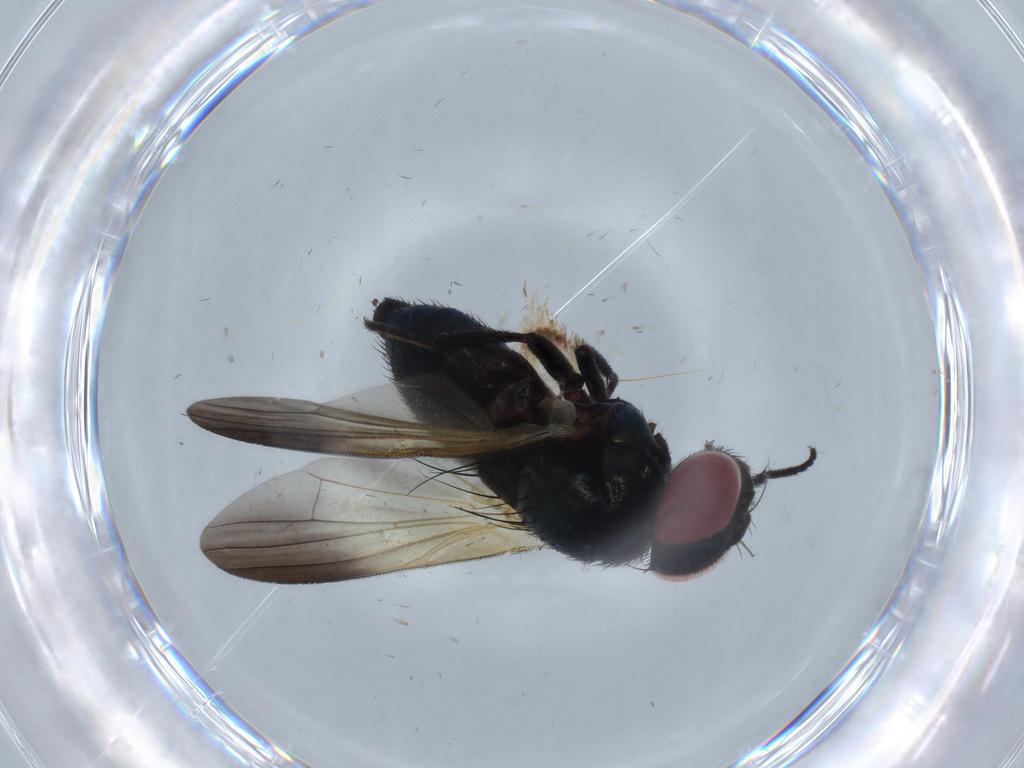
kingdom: Animalia
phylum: Arthropoda
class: Insecta
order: Diptera
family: Lonchaeidae
